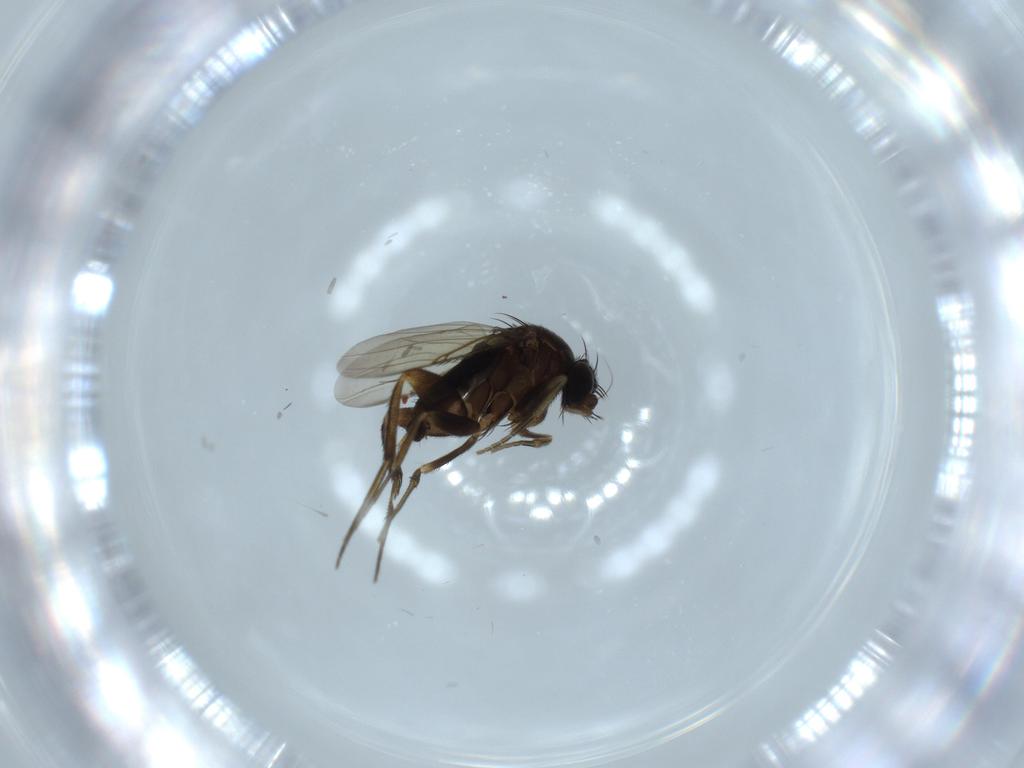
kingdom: Animalia
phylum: Arthropoda
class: Insecta
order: Diptera
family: Phoridae
